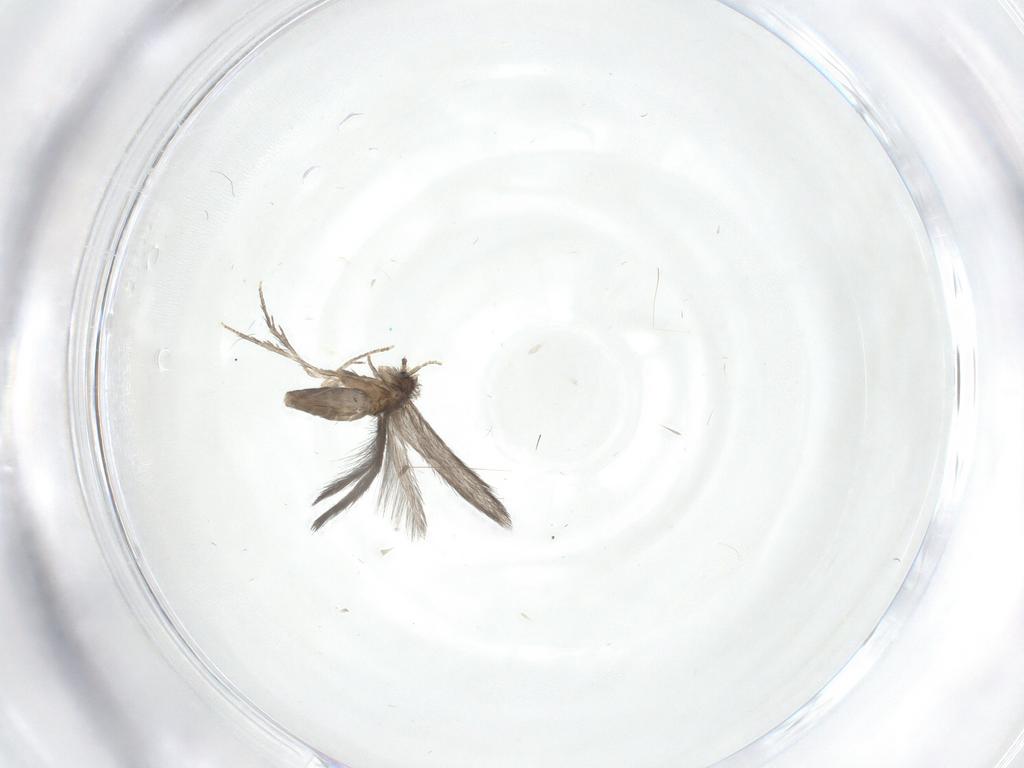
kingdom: Animalia
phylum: Arthropoda
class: Insecta
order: Trichoptera
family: Hydroptilidae
